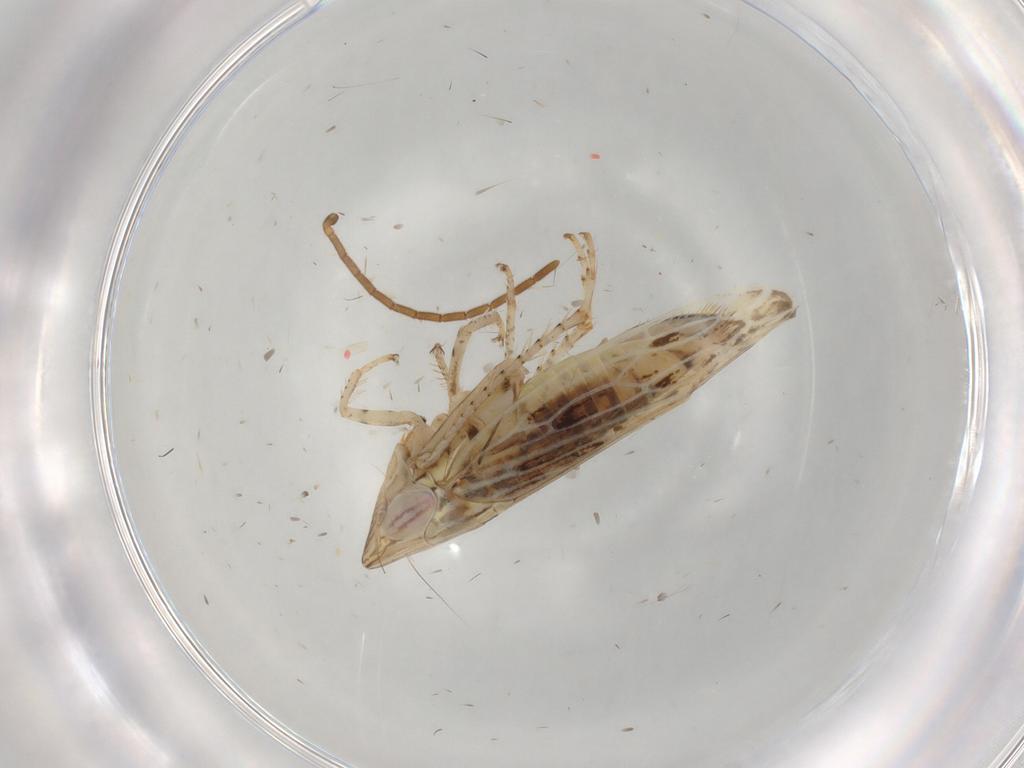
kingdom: Animalia
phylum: Arthropoda
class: Insecta
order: Hemiptera
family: Cicadellidae
